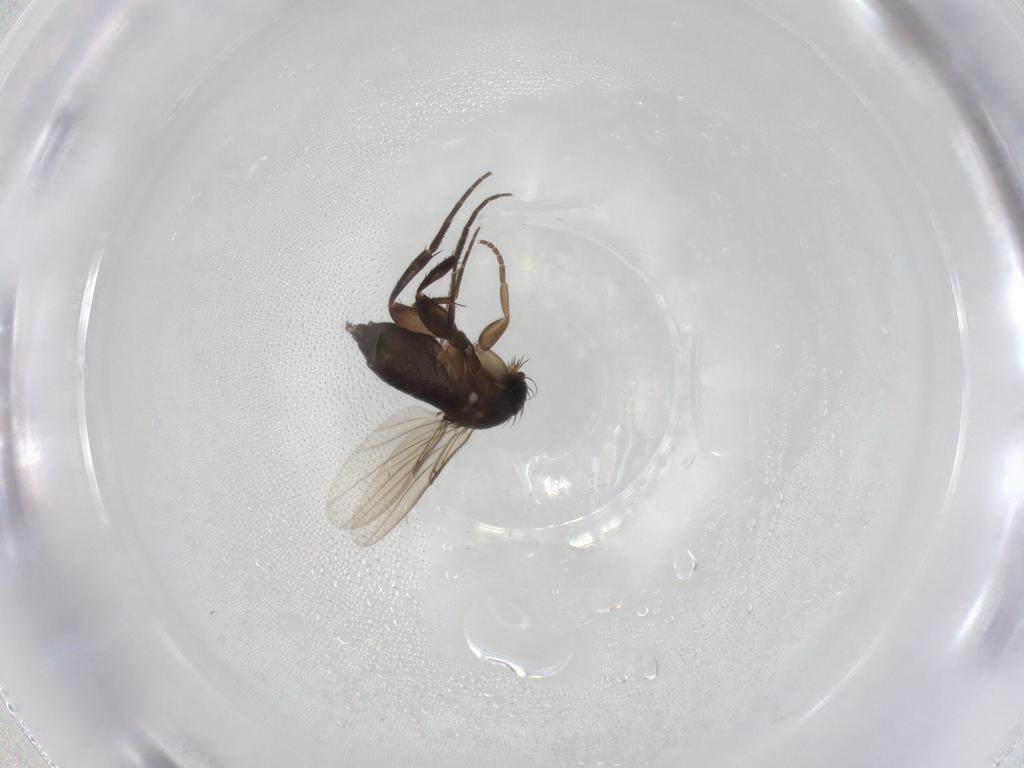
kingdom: Animalia
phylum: Arthropoda
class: Insecta
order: Diptera
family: Phoridae
